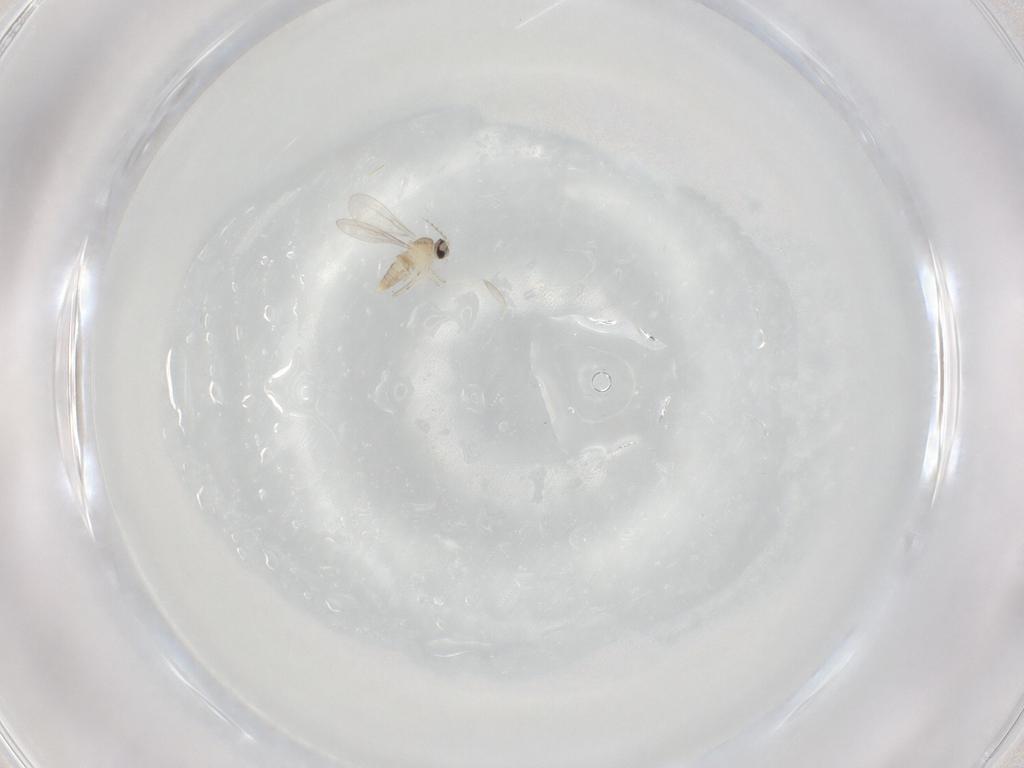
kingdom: Animalia
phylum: Arthropoda
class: Insecta
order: Diptera
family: Cecidomyiidae
